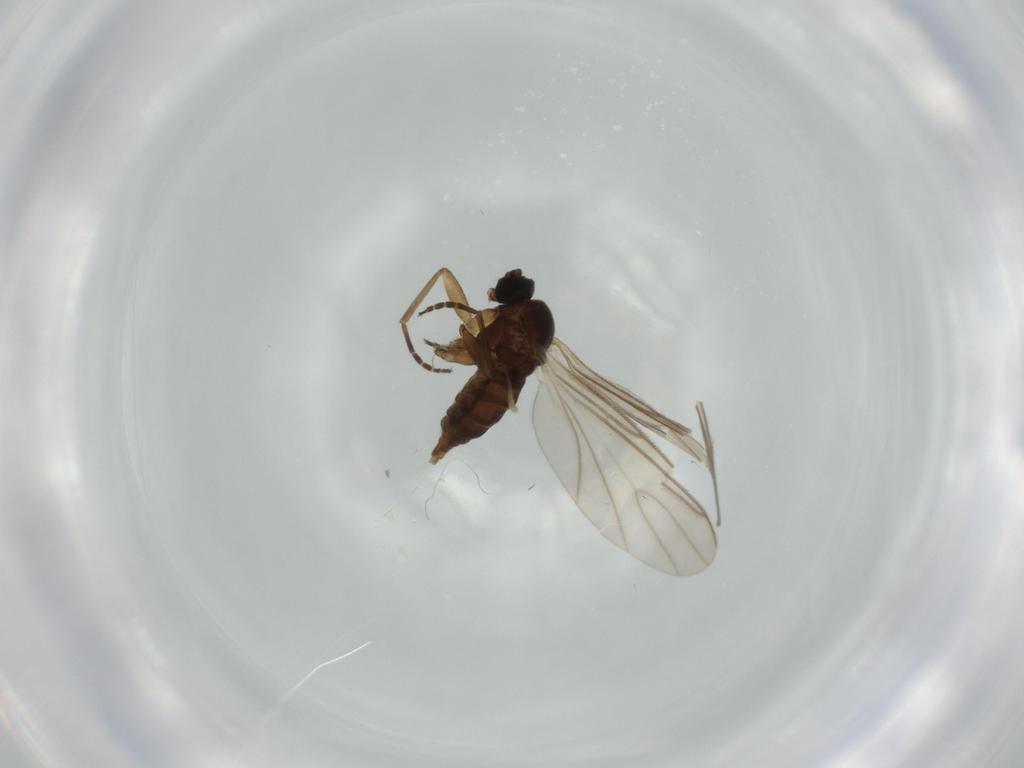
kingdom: Animalia
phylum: Arthropoda
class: Insecta
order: Diptera
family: Sciaridae
